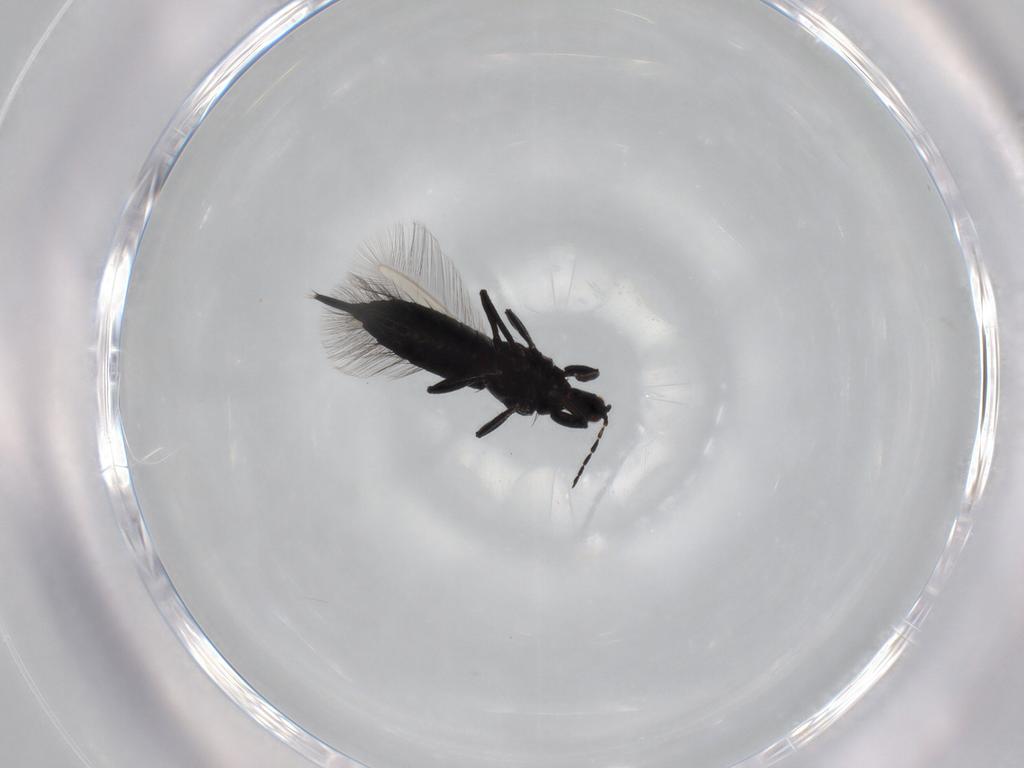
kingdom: Animalia
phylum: Arthropoda
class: Insecta
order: Thysanoptera
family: Phlaeothripidae
